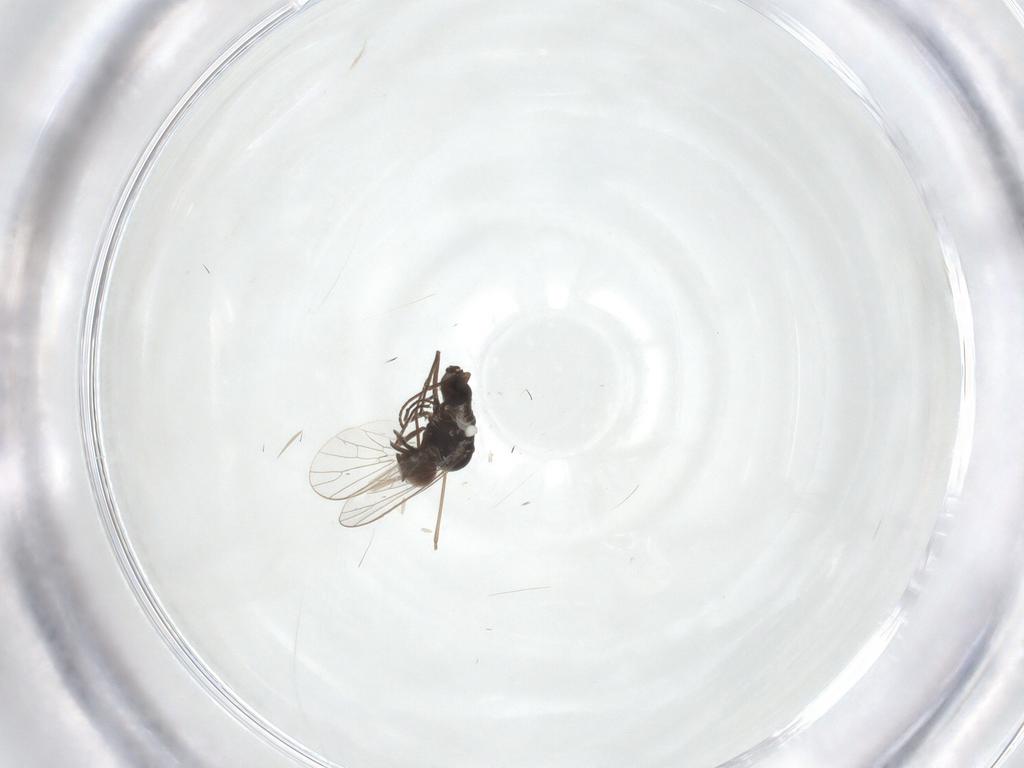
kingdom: Animalia
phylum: Arthropoda
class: Insecta
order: Diptera
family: Cecidomyiidae
